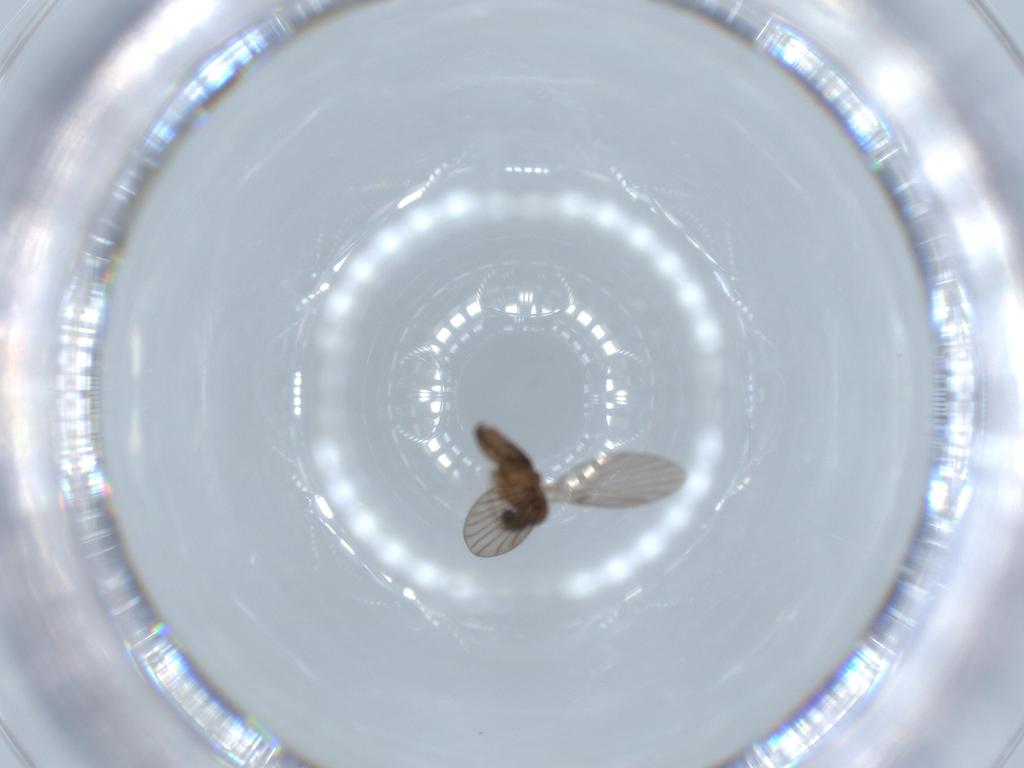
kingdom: Animalia
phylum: Arthropoda
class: Insecta
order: Diptera
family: Psychodidae
